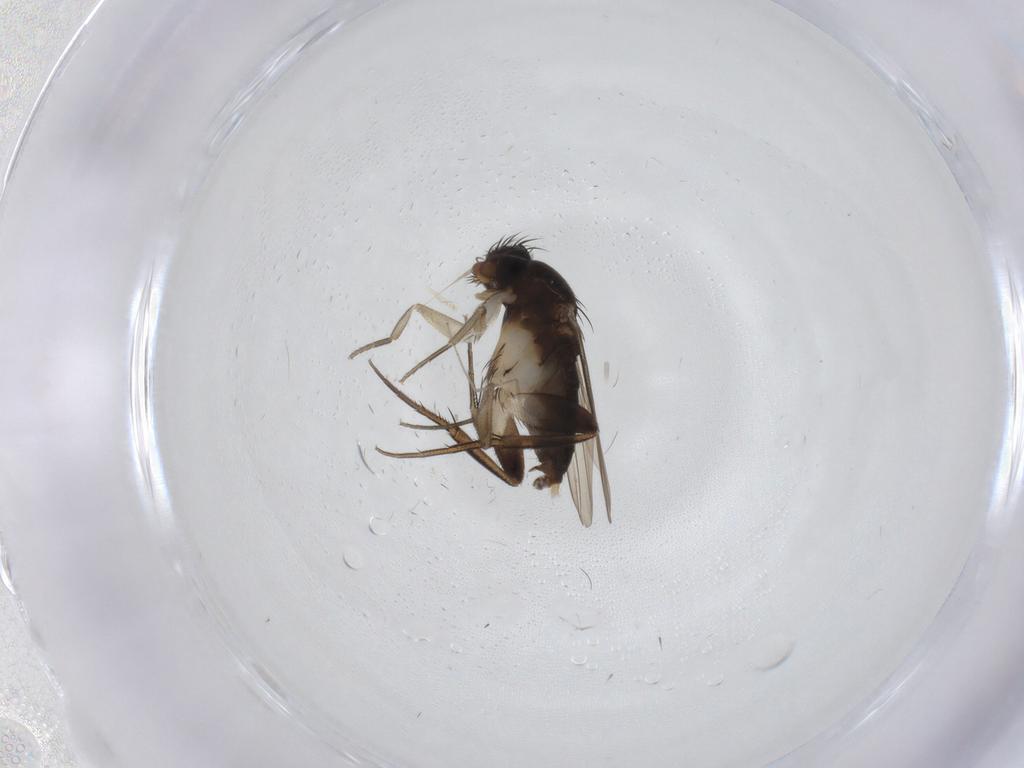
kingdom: Animalia
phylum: Arthropoda
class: Insecta
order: Diptera
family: Phoridae
